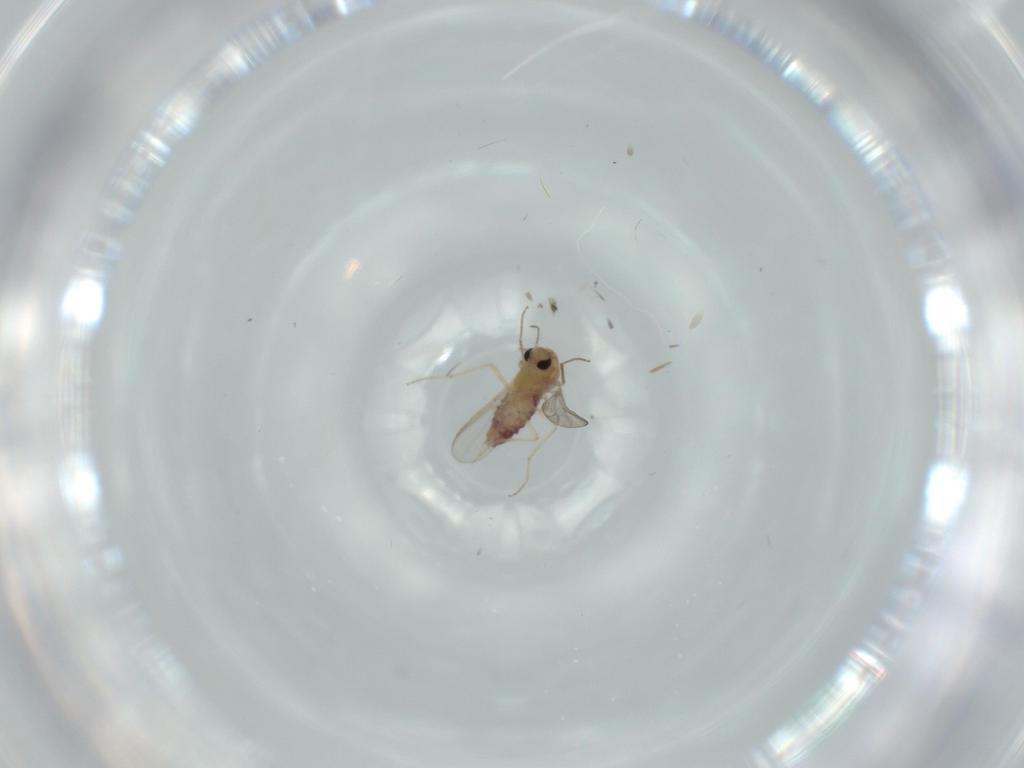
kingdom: Animalia
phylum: Arthropoda
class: Insecta
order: Diptera
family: Chironomidae
